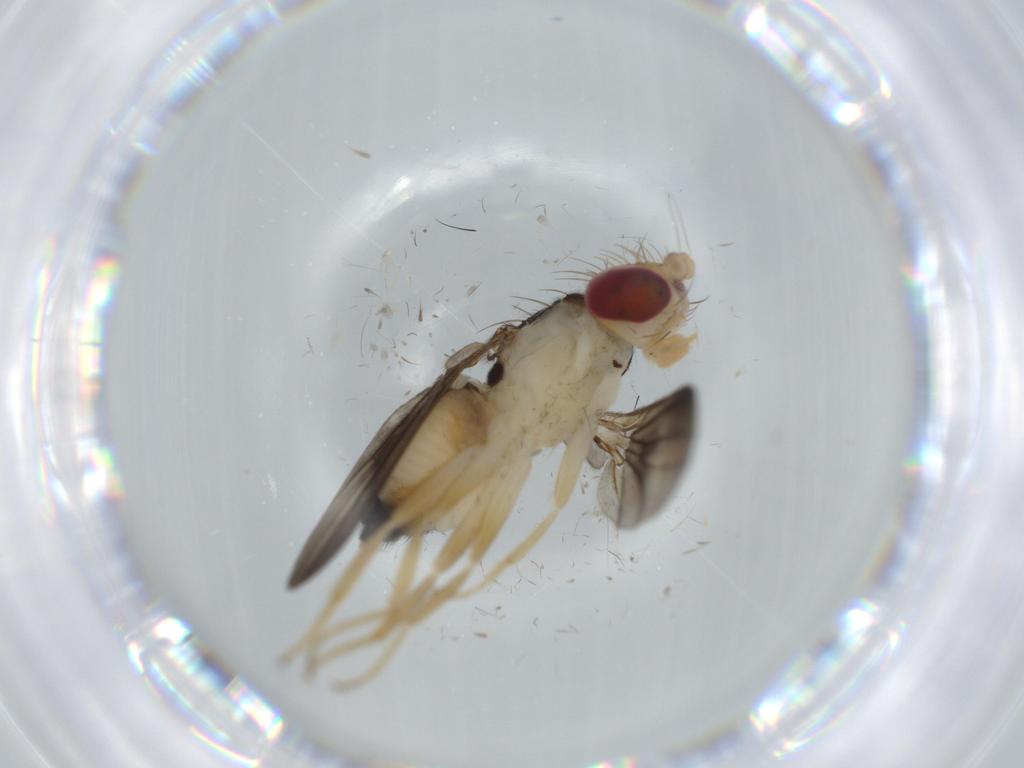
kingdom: Animalia
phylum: Arthropoda
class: Insecta
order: Diptera
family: Clusiidae
